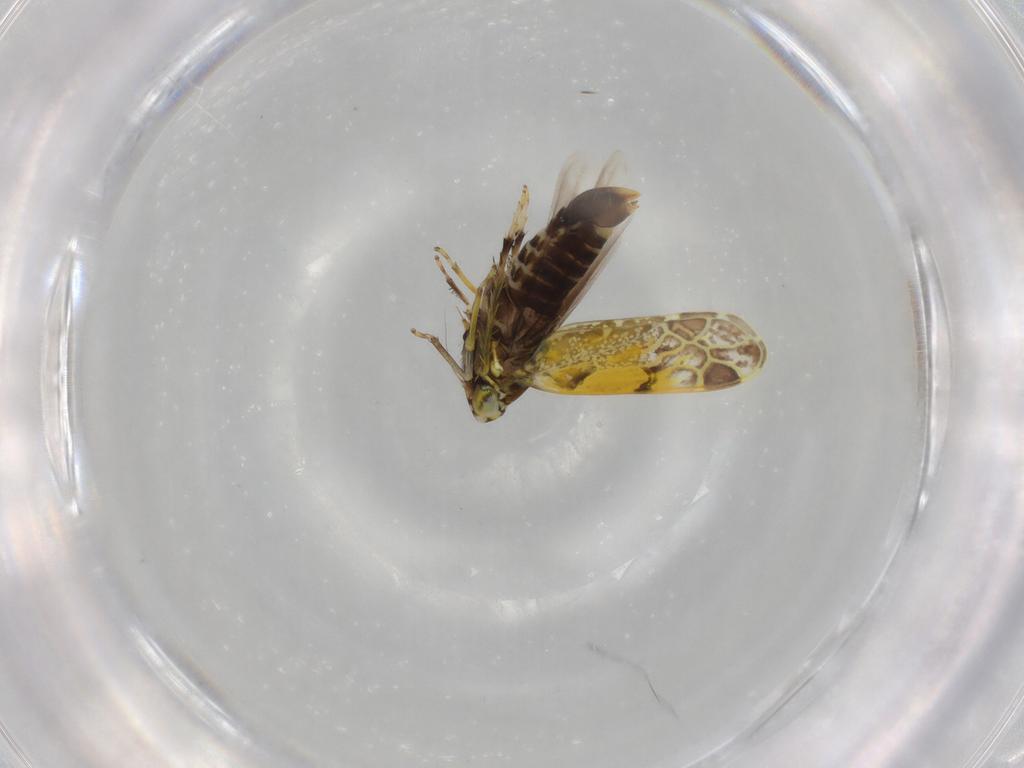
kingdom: Animalia
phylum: Arthropoda
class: Insecta
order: Hemiptera
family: Cicadellidae
